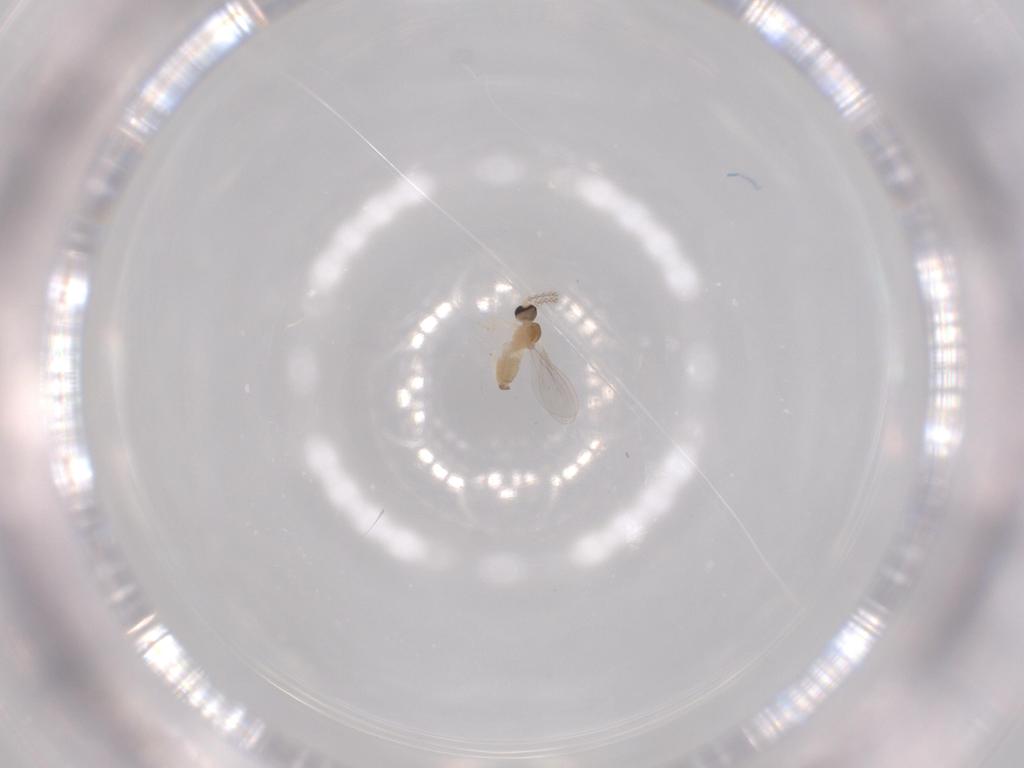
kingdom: Animalia
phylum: Arthropoda
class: Insecta
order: Diptera
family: Cecidomyiidae
